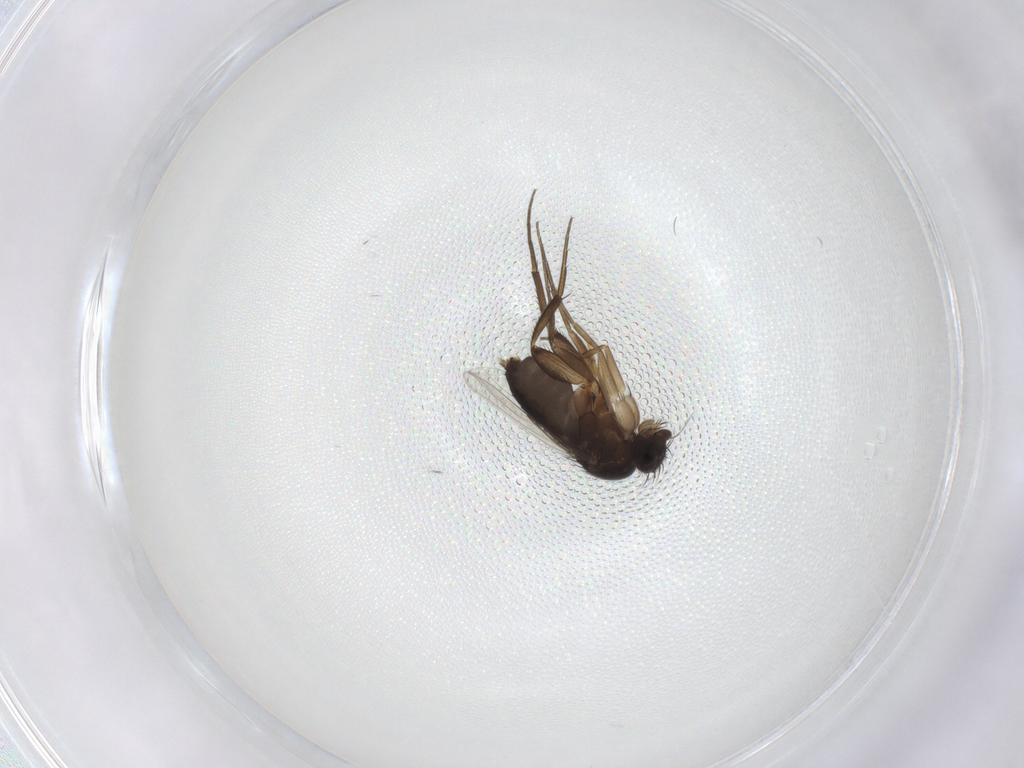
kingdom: Animalia
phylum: Arthropoda
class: Insecta
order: Diptera
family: Phoridae
